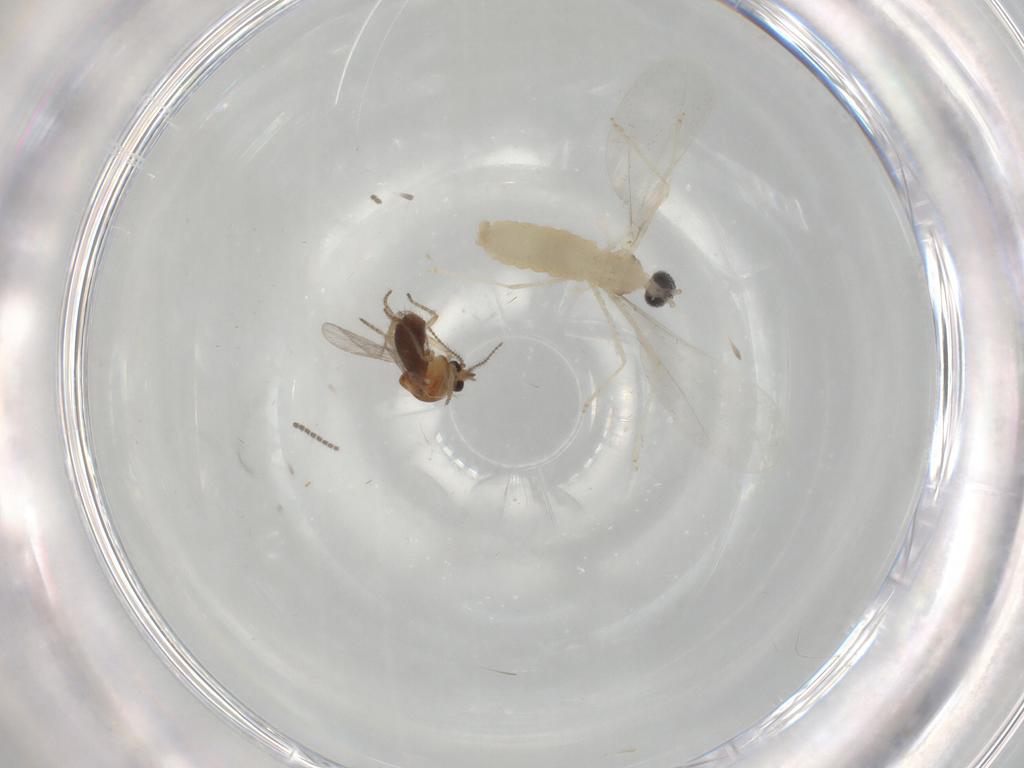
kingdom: Animalia
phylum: Arthropoda
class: Insecta
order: Diptera
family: Ceratopogonidae
